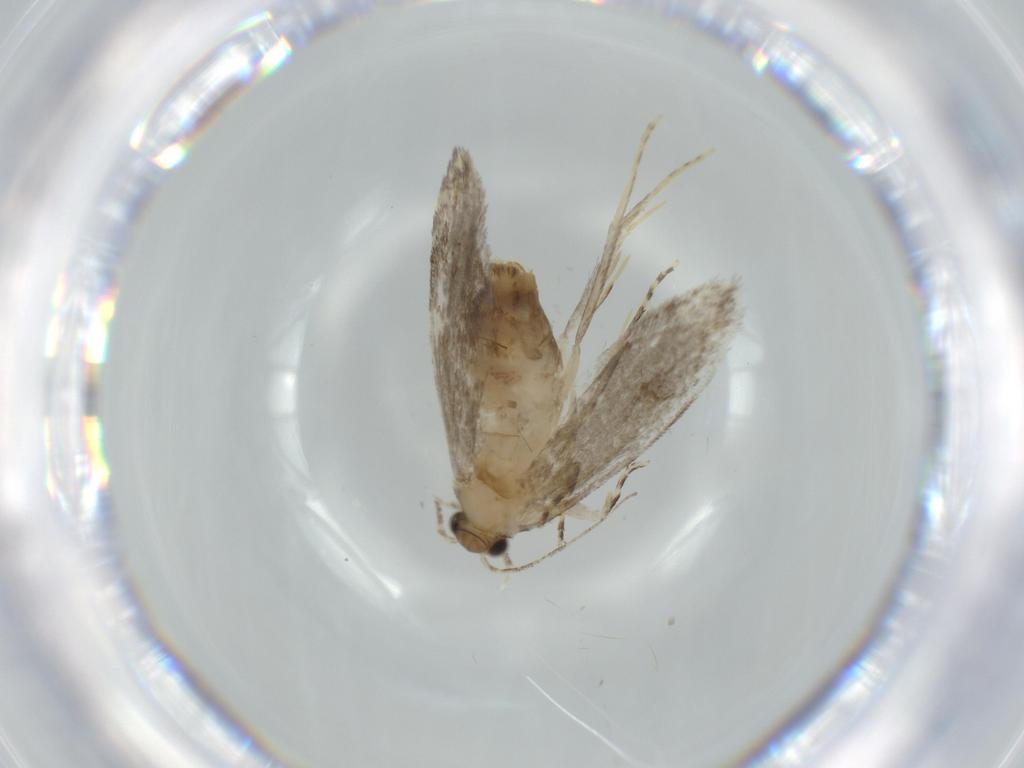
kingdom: Animalia
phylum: Arthropoda
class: Insecta
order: Lepidoptera
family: Tineidae
